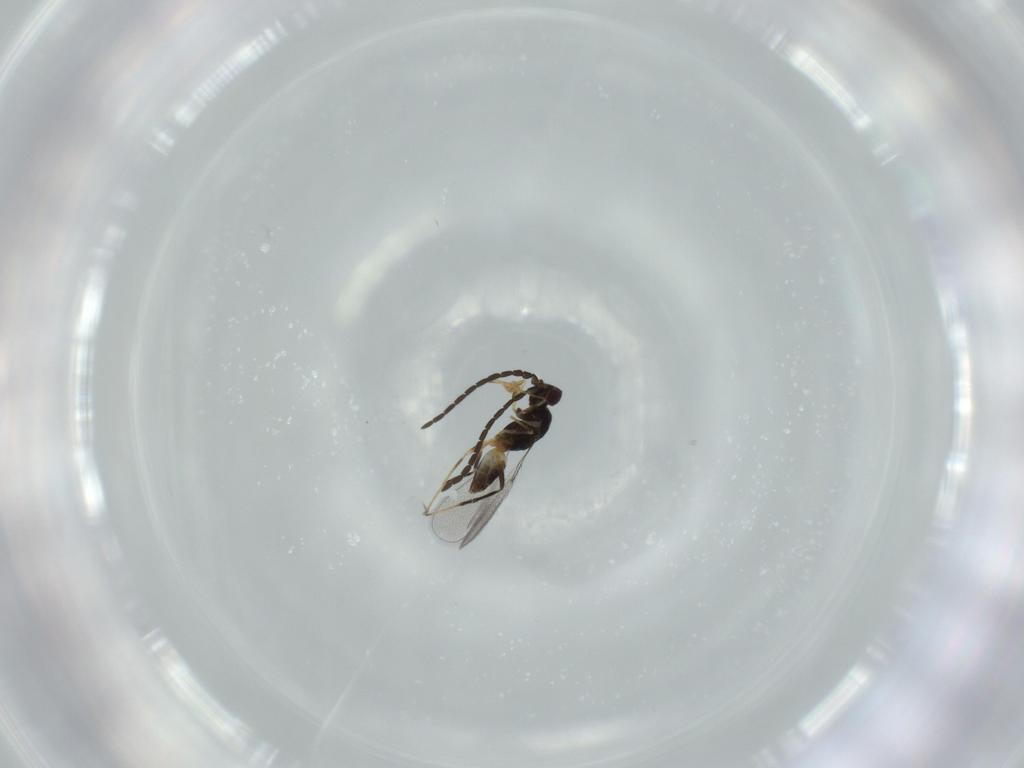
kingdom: Animalia
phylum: Arthropoda
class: Insecta
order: Hymenoptera
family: Formicidae
